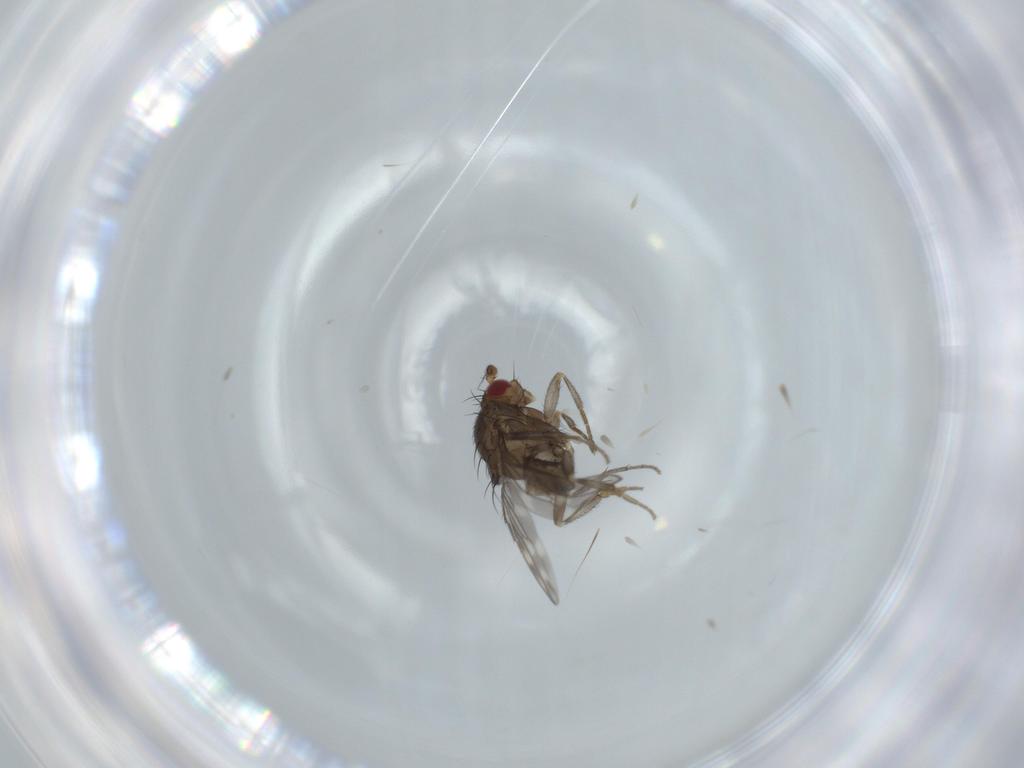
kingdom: Animalia
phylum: Arthropoda
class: Insecta
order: Diptera
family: Sphaeroceridae
